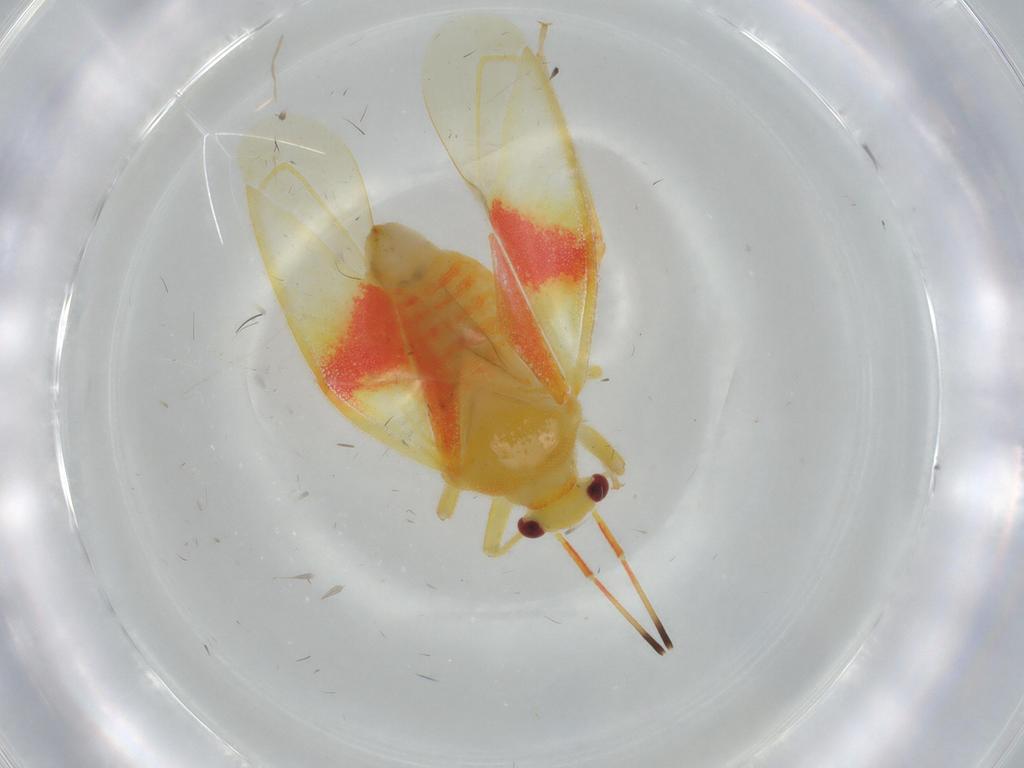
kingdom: Animalia
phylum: Arthropoda
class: Insecta
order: Hemiptera
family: Miridae
